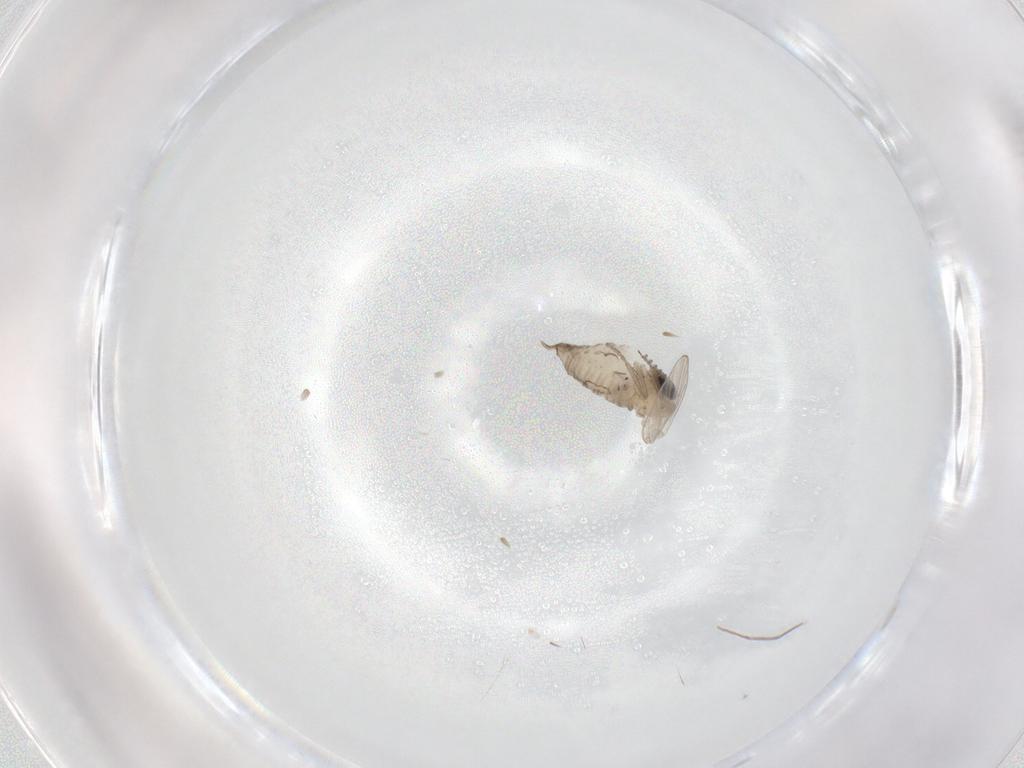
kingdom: Animalia
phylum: Arthropoda
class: Insecta
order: Diptera
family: Psychodidae
